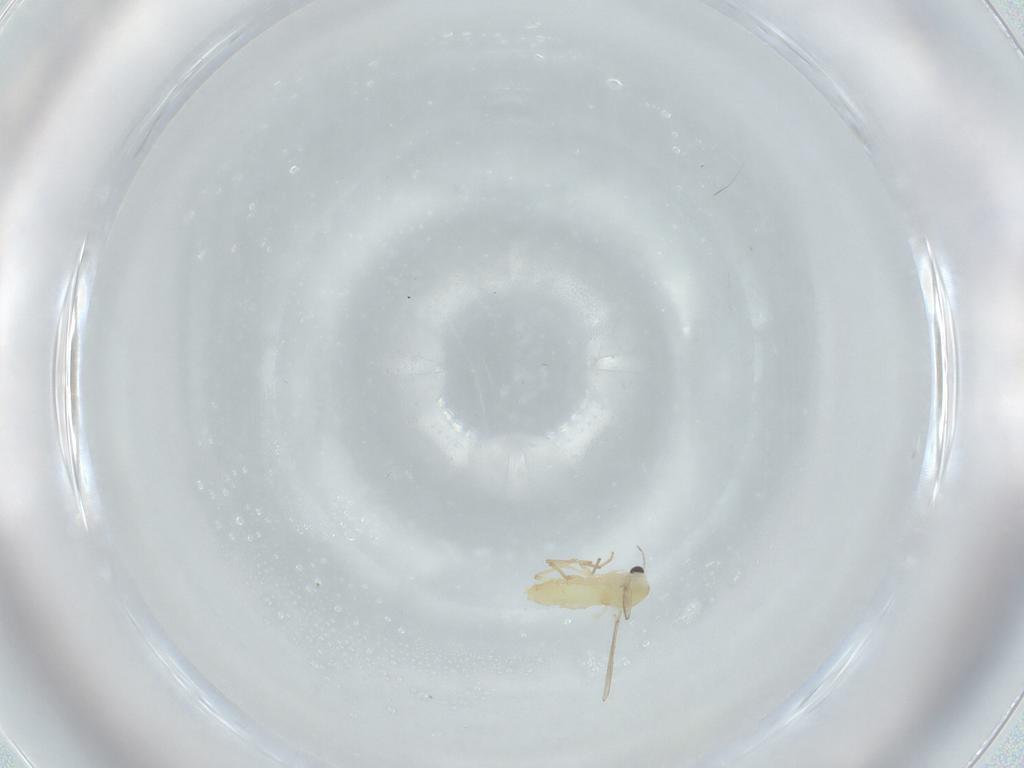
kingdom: Animalia
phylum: Arthropoda
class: Insecta
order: Diptera
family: Chironomidae
